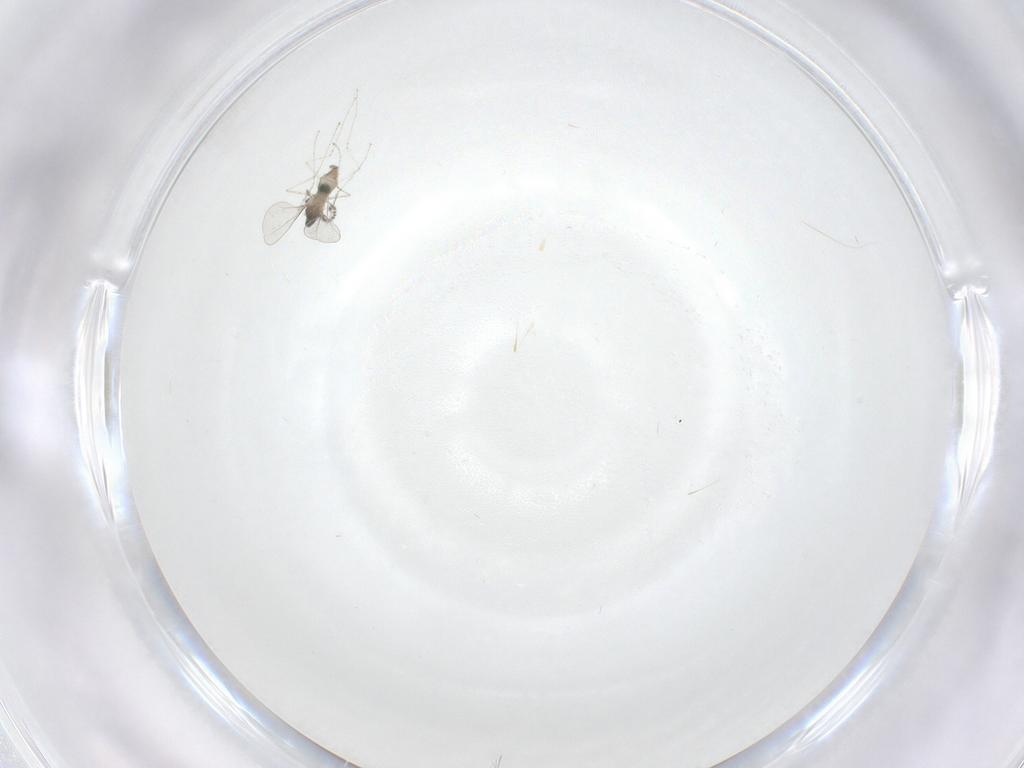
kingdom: Animalia
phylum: Arthropoda
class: Insecta
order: Diptera
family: Cecidomyiidae
